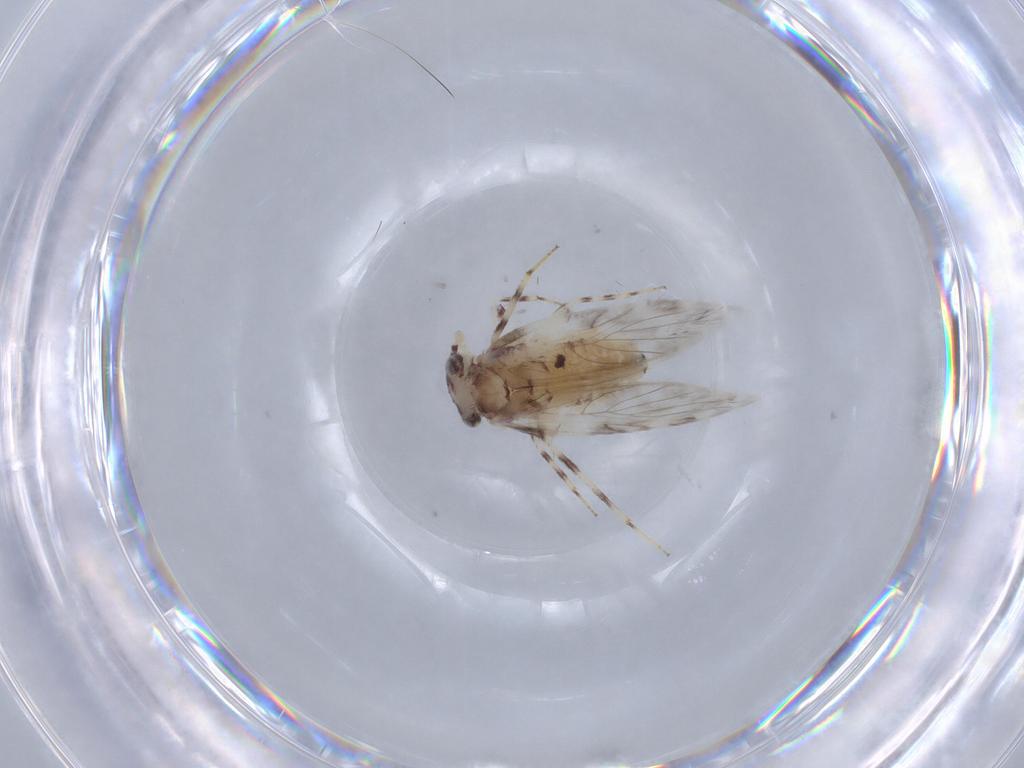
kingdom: Animalia
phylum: Arthropoda
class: Insecta
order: Psocodea
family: Lepidopsocidae
